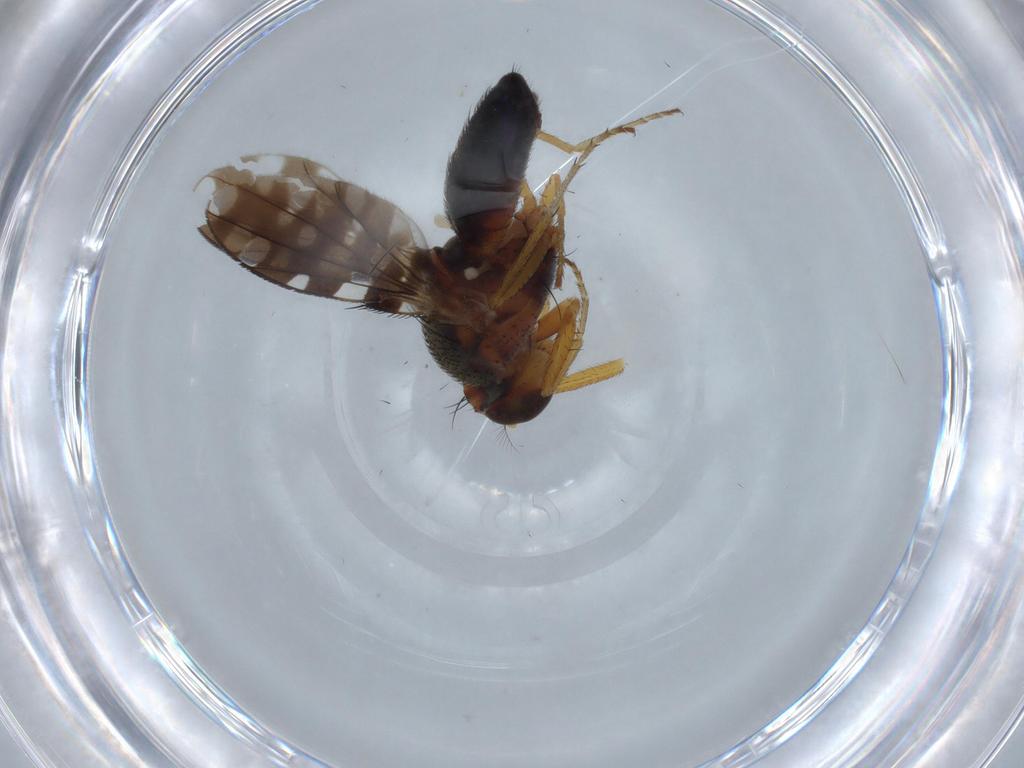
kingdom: Animalia
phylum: Arthropoda
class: Insecta
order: Diptera
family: Ephydridae
